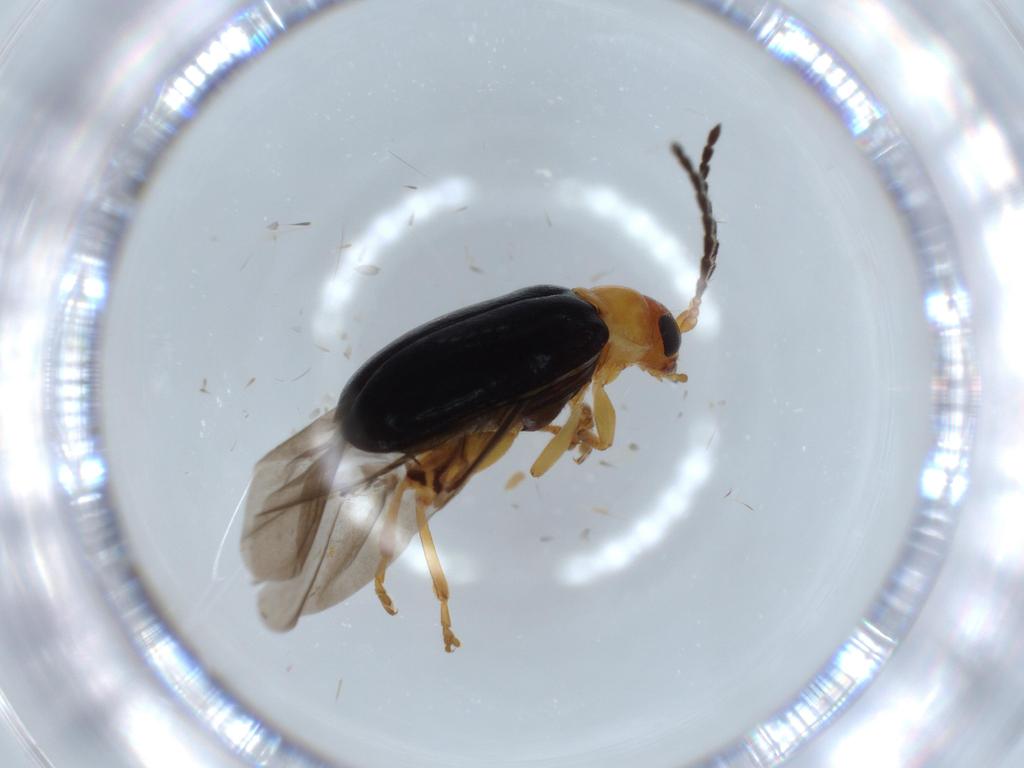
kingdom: Animalia
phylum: Arthropoda
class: Insecta
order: Coleoptera
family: Chrysomelidae
